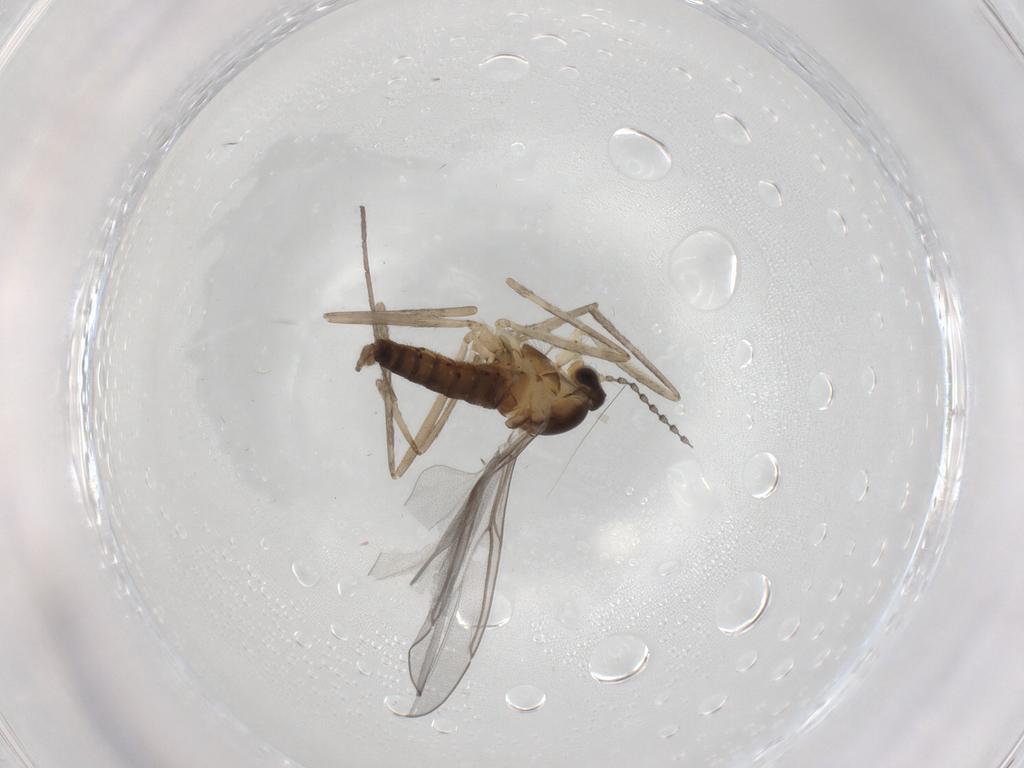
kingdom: Animalia
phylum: Arthropoda
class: Insecta
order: Diptera
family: Cecidomyiidae
